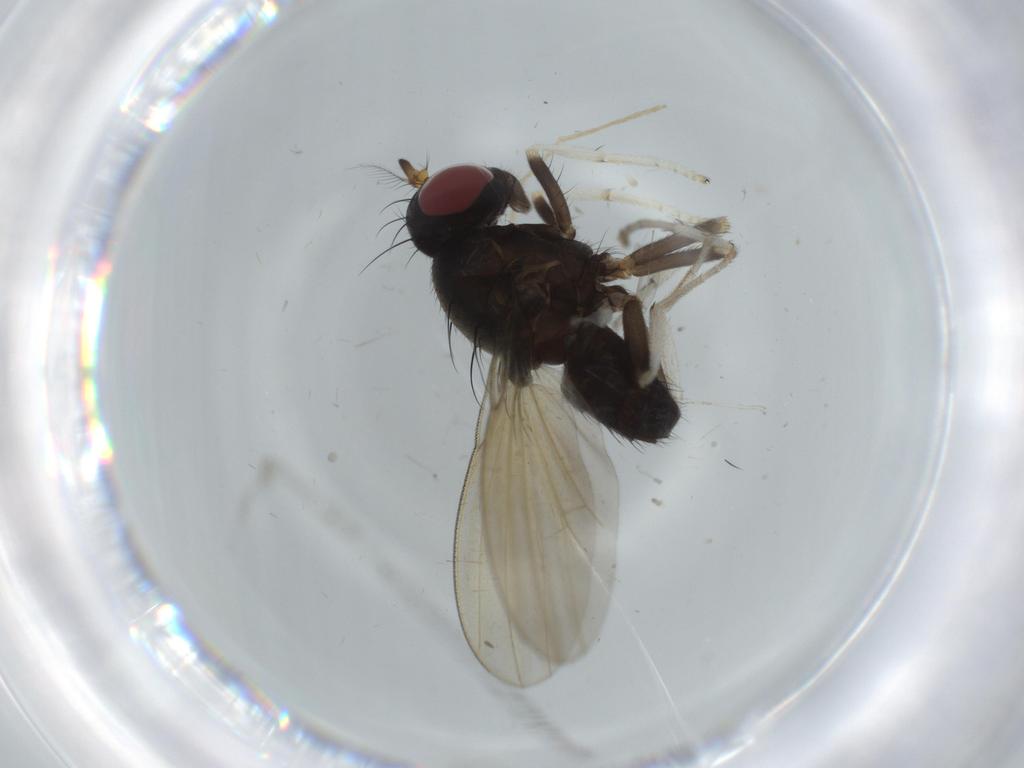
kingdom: Animalia
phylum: Arthropoda
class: Insecta
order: Diptera
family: Cecidomyiidae
